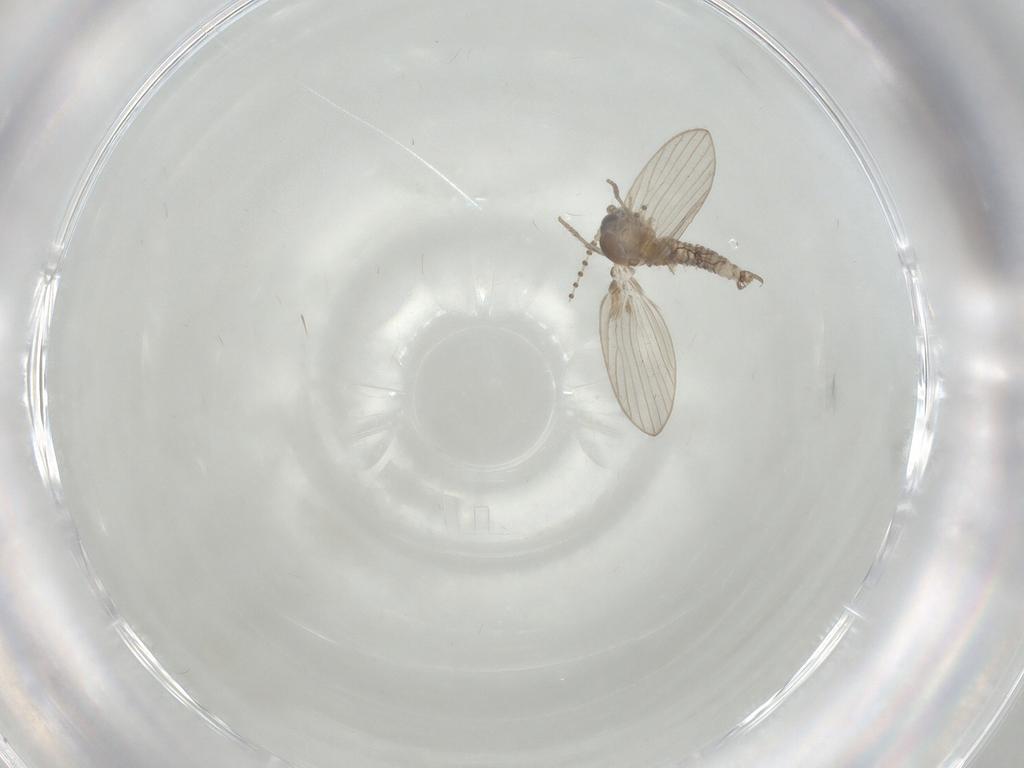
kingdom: Animalia
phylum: Arthropoda
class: Insecta
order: Diptera
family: Psychodidae
